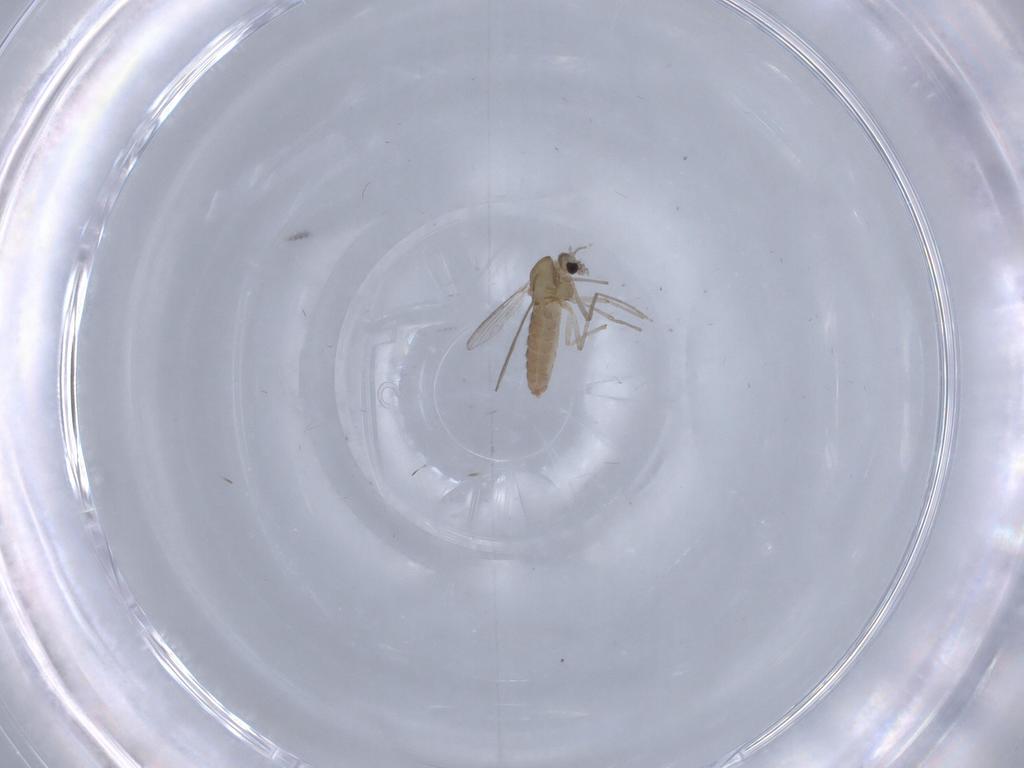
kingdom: Animalia
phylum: Arthropoda
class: Insecta
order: Diptera
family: Chironomidae
